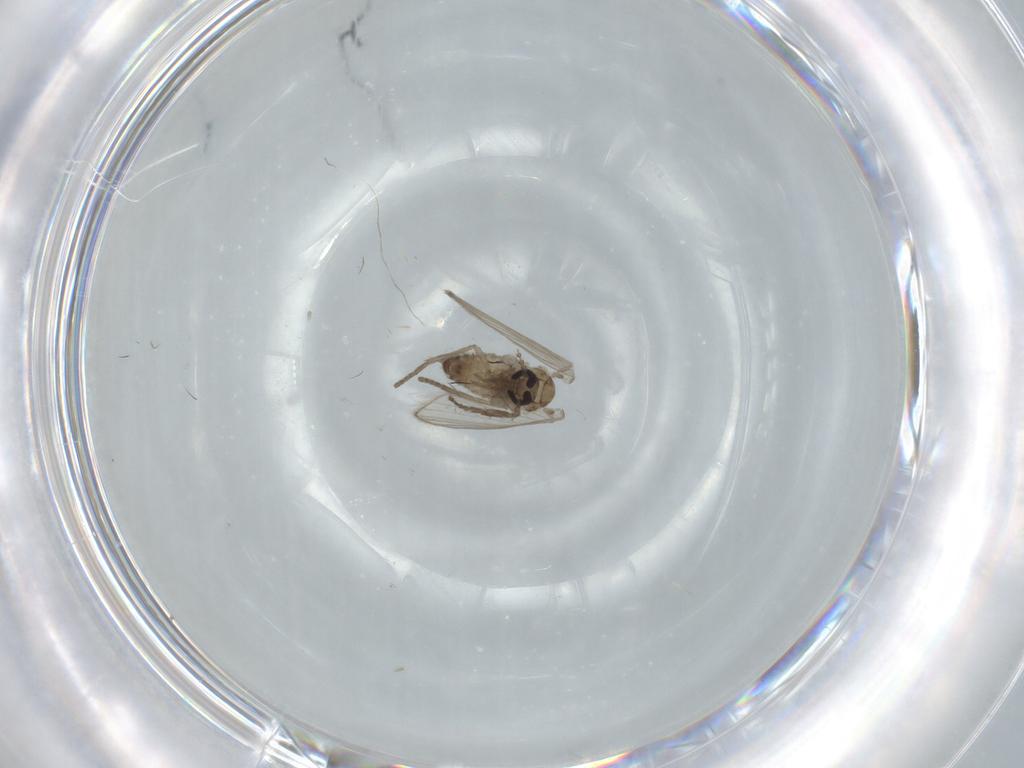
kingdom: Animalia
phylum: Arthropoda
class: Insecta
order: Diptera
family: Psychodidae
